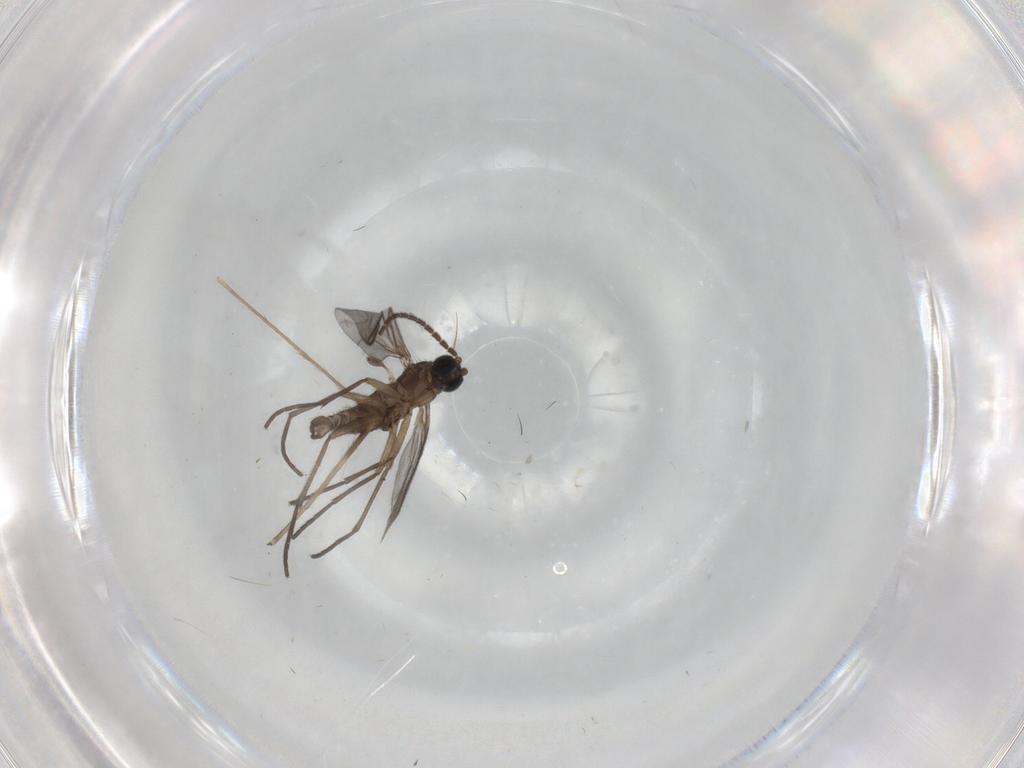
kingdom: Animalia
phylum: Arthropoda
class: Insecta
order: Diptera
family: Sciaridae
